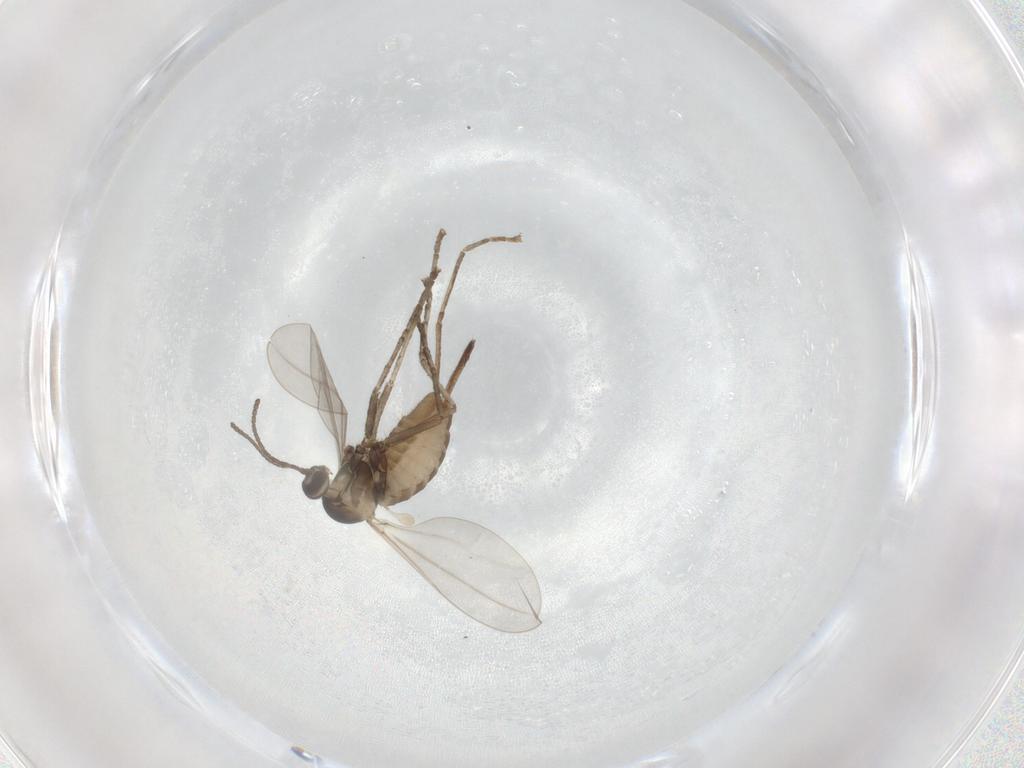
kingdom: Animalia
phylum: Arthropoda
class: Insecta
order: Diptera
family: Cecidomyiidae
